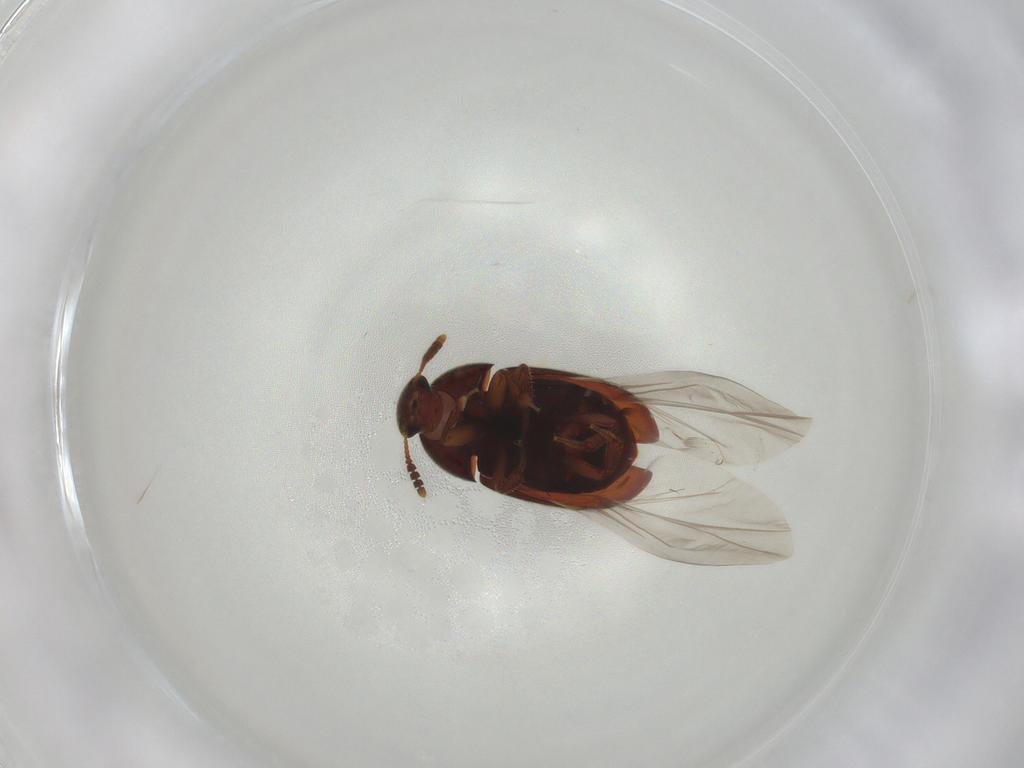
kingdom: Animalia
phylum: Arthropoda
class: Insecta
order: Coleoptera
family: Leiodidae
